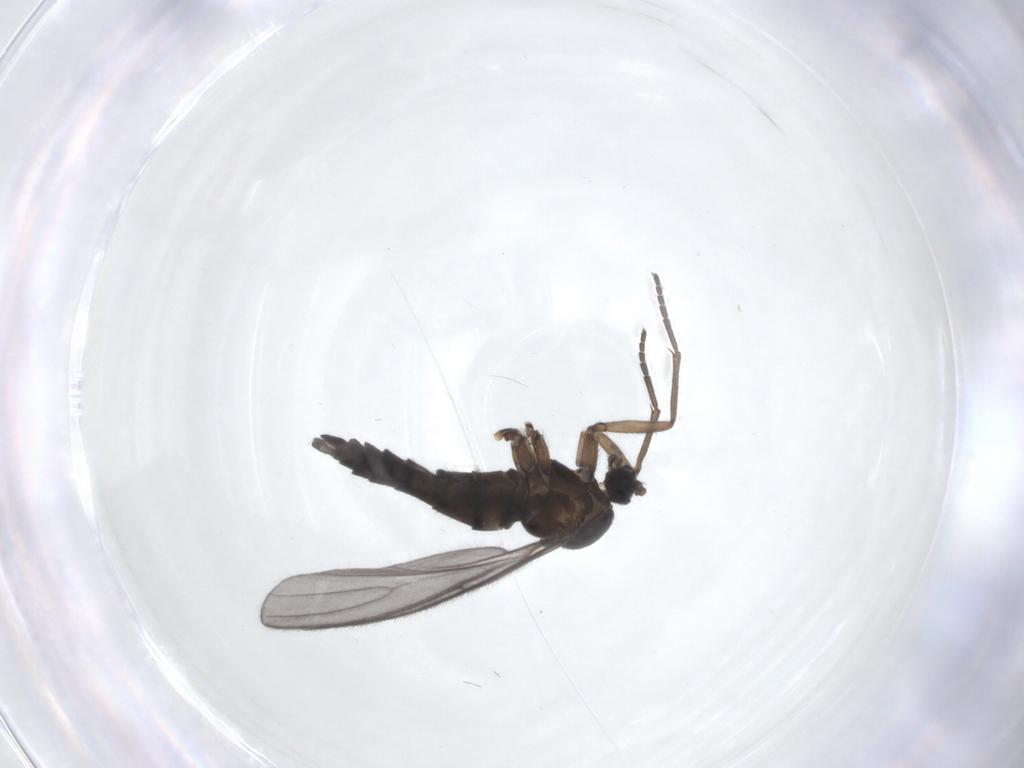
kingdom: Animalia
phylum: Arthropoda
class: Insecta
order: Diptera
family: Sciaridae
